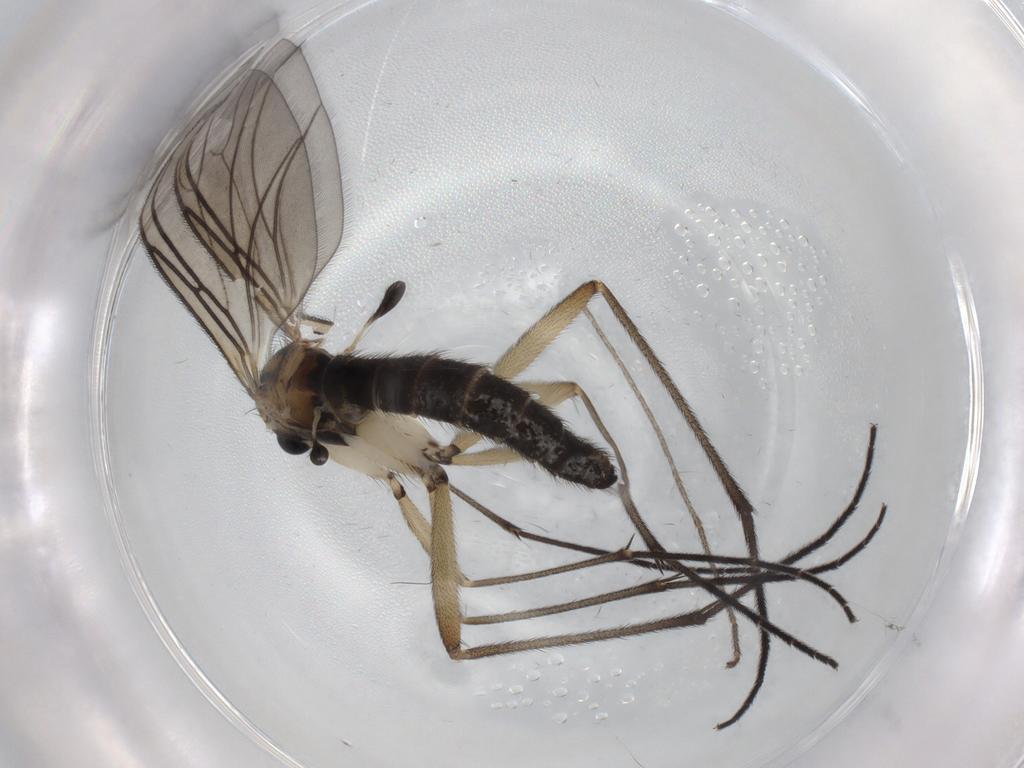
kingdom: Animalia
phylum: Arthropoda
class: Insecta
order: Diptera
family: Sciaridae
